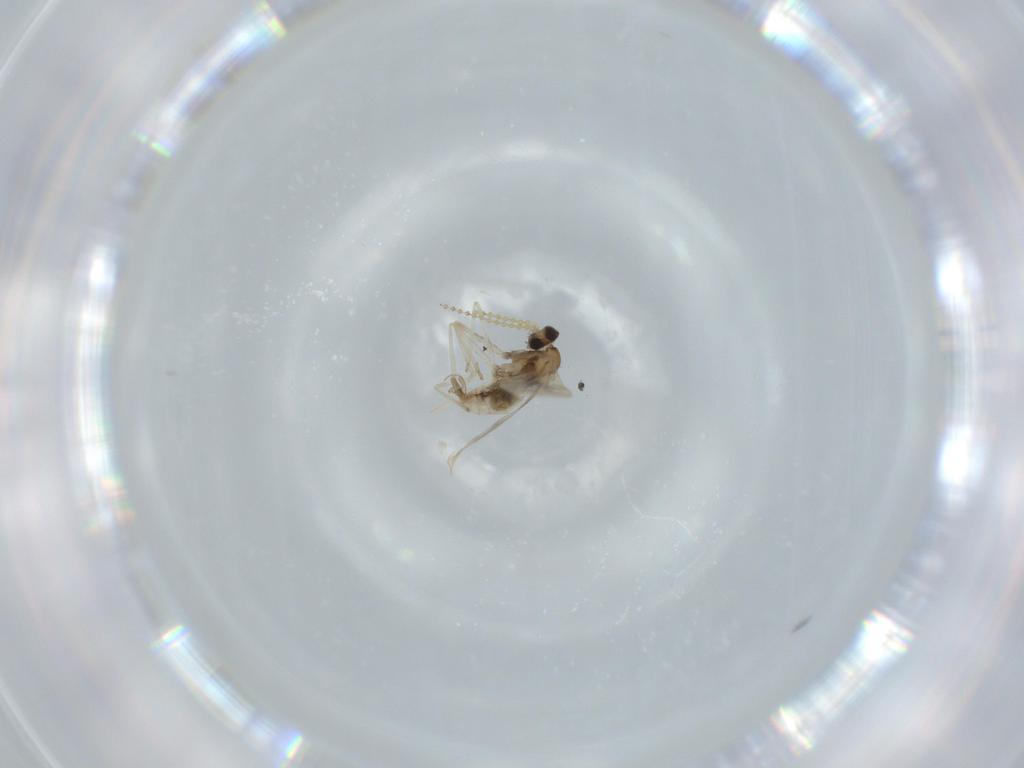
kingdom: Animalia
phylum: Arthropoda
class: Insecta
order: Diptera
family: Cecidomyiidae
